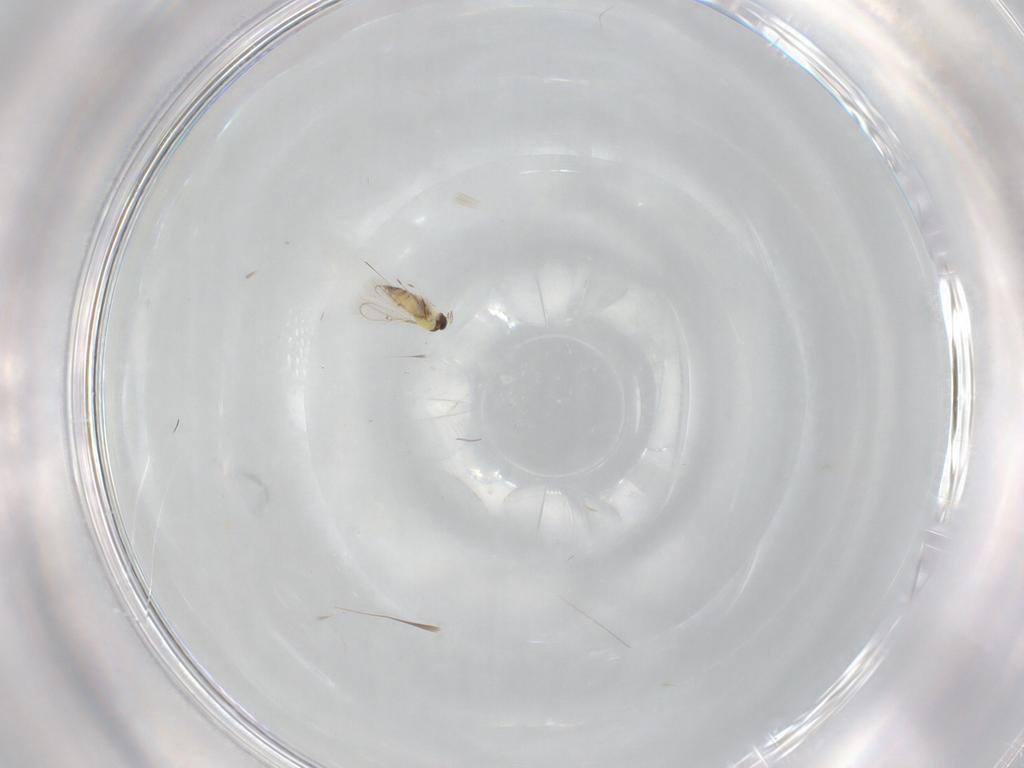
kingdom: Animalia
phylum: Arthropoda
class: Insecta
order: Hymenoptera
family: Trichogrammatidae
